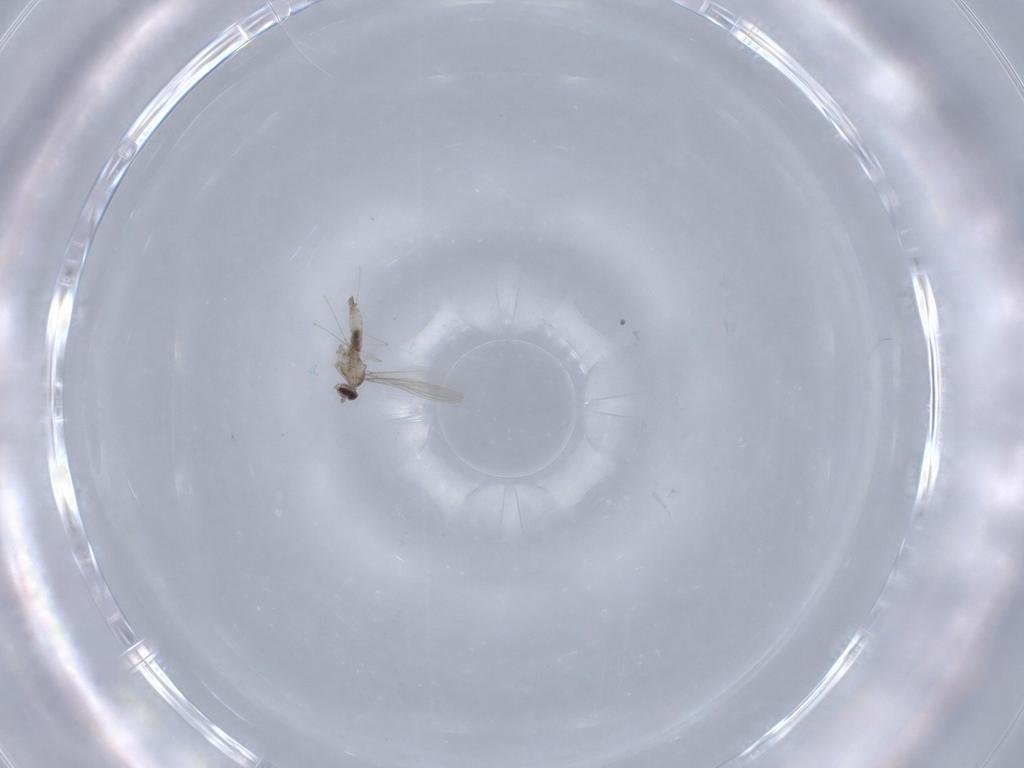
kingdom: Animalia
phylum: Arthropoda
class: Insecta
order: Diptera
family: Cecidomyiidae
